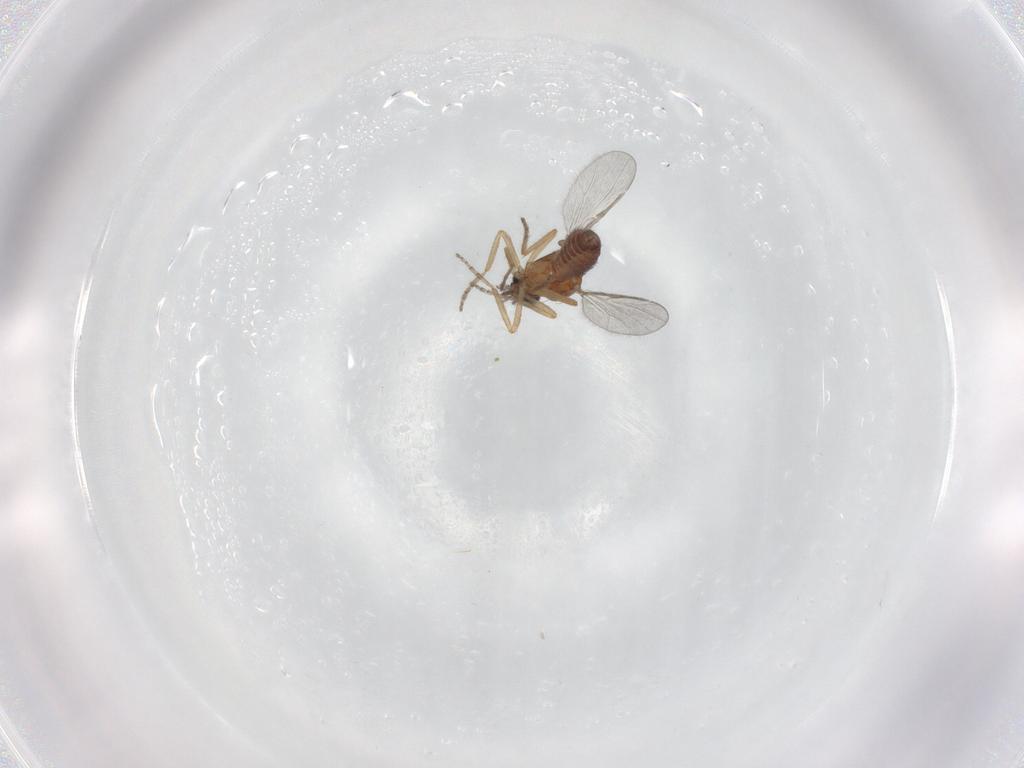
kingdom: Animalia
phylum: Arthropoda
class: Insecta
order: Diptera
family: Ceratopogonidae
